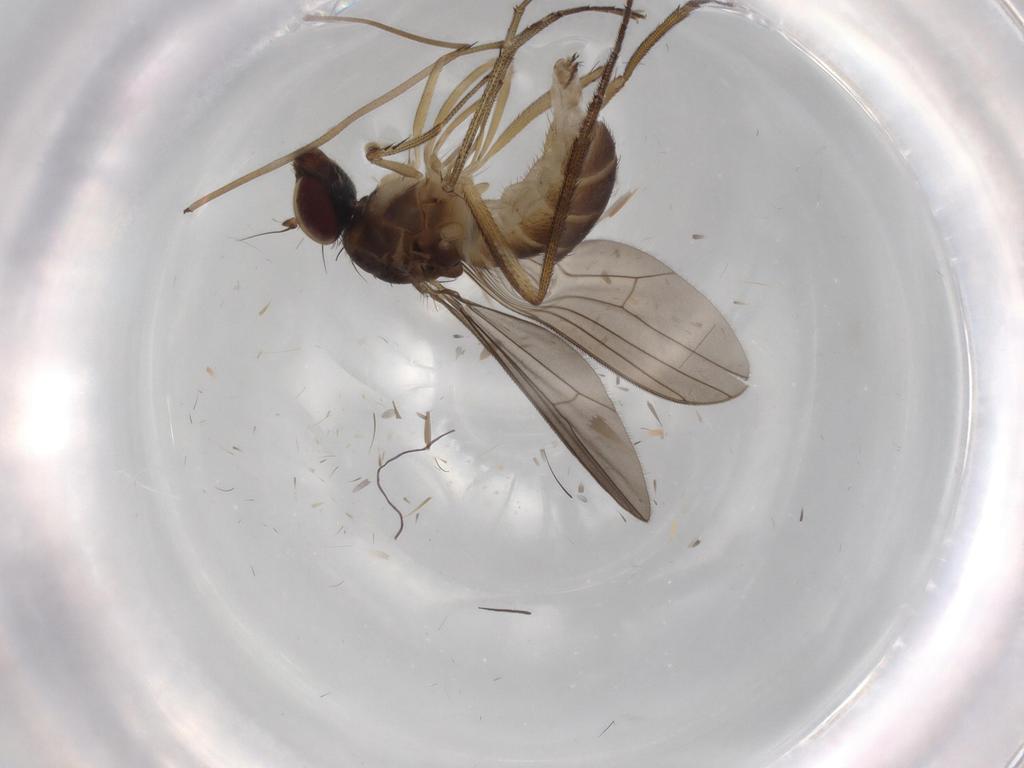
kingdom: Animalia
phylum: Arthropoda
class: Insecta
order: Diptera
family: Limoniidae
